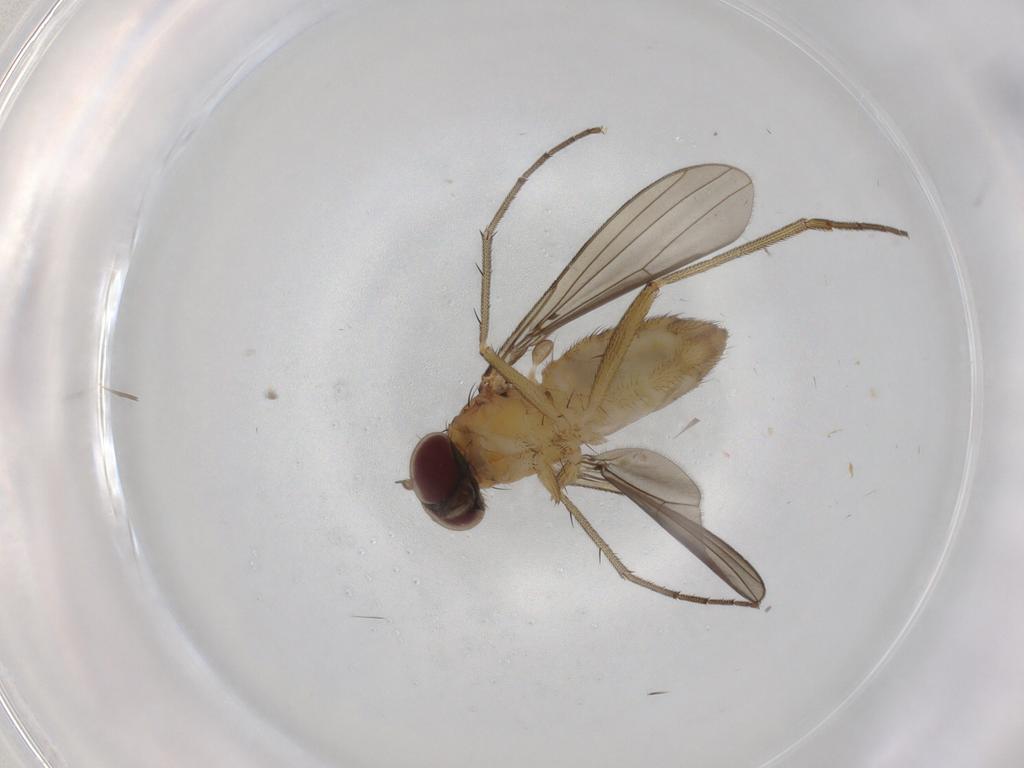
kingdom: Animalia
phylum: Arthropoda
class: Insecta
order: Diptera
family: Dolichopodidae
